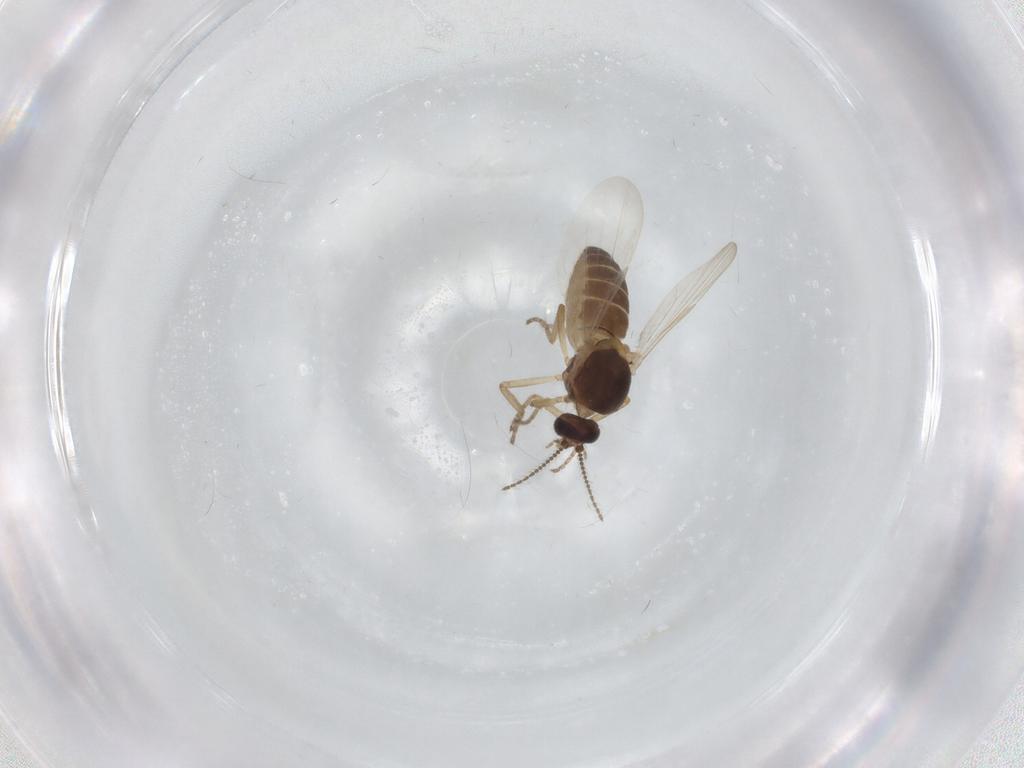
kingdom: Animalia
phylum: Arthropoda
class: Insecta
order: Diptera
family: Ceratopogonidae
